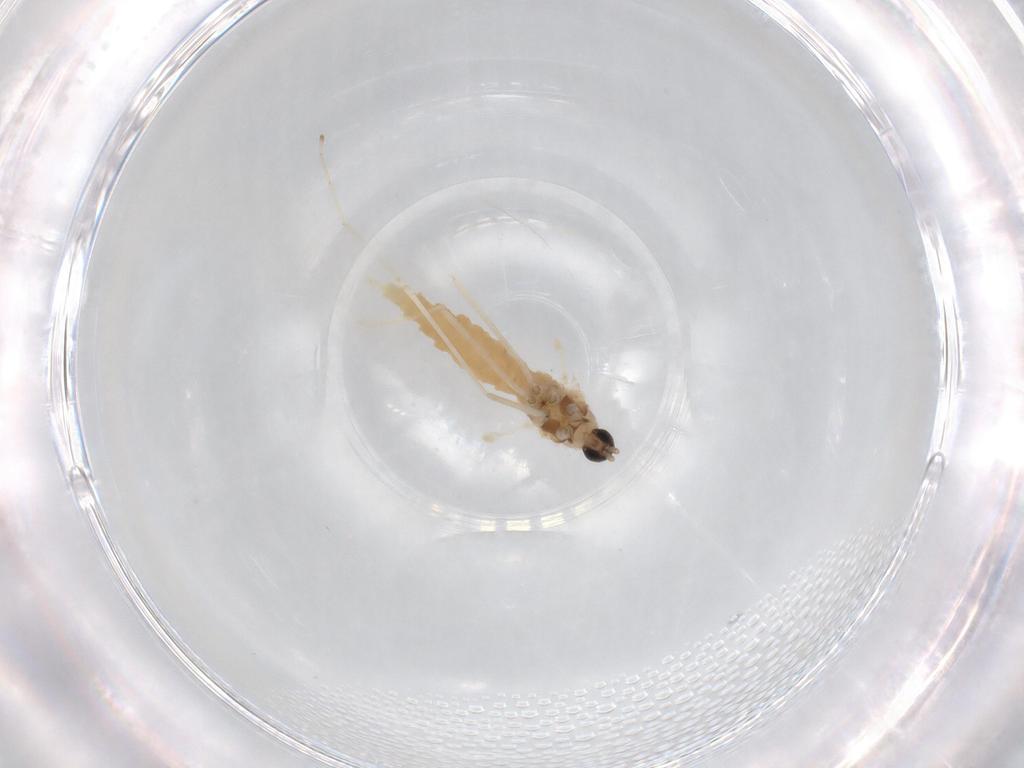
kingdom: Animalia
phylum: Arthropoda
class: Insecta
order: Diptera
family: Cecidomyiidae
